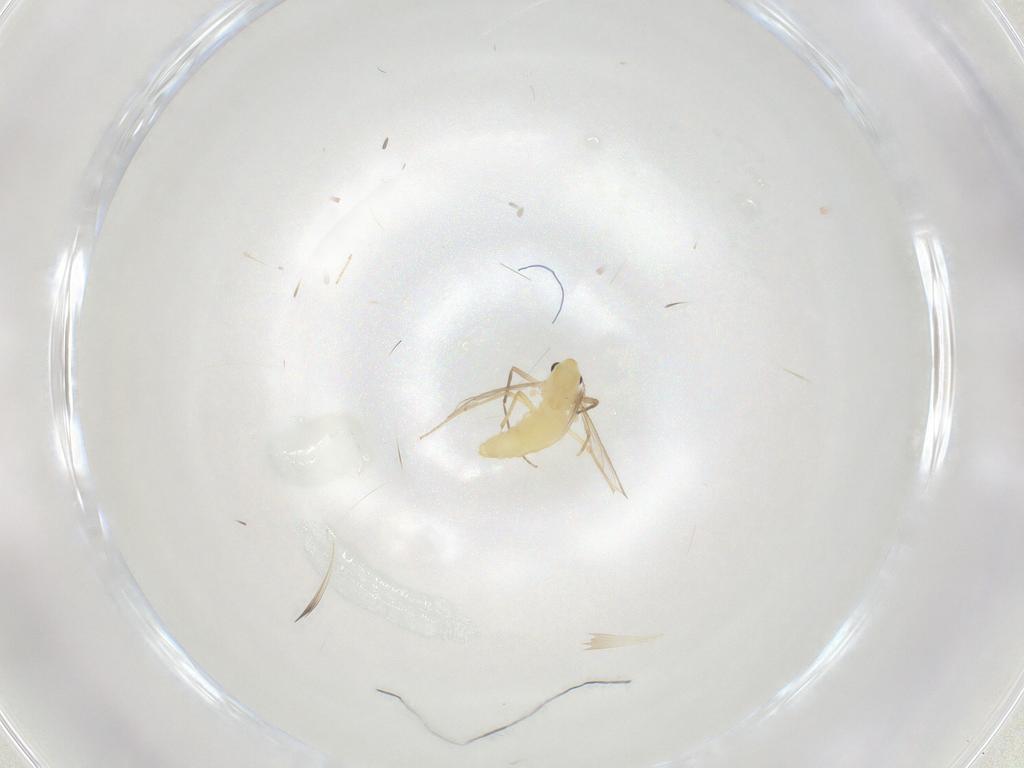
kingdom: Animalia
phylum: Arthropoda
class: Insecta
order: Diptera
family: Chironomidae
